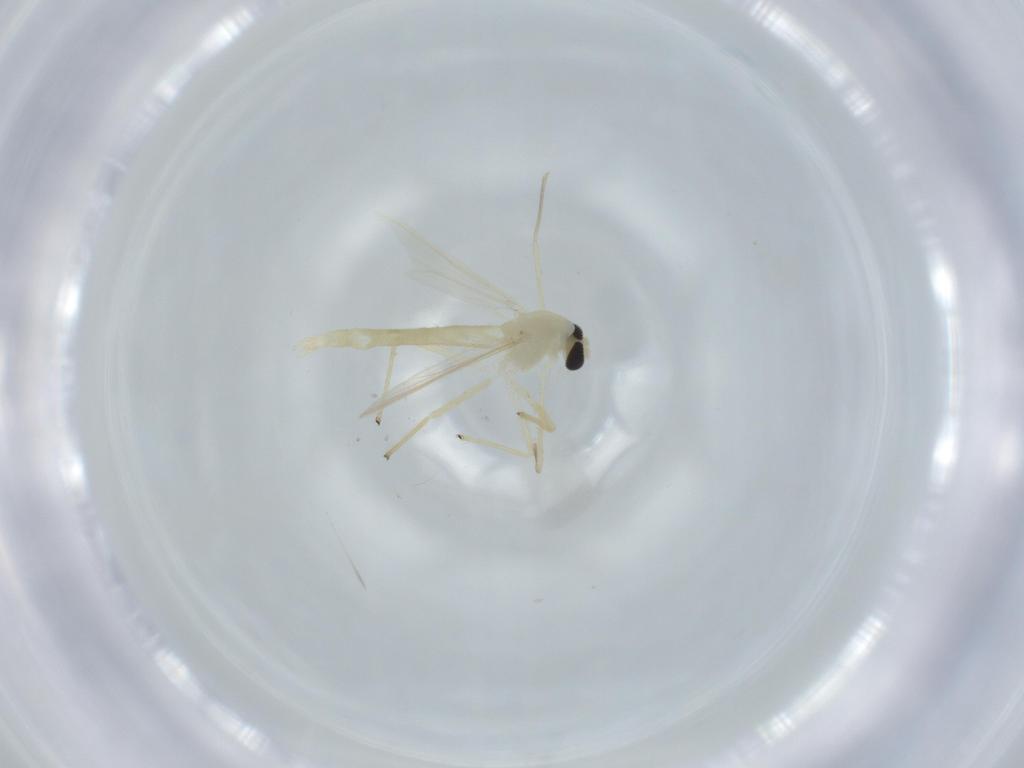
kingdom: Animalia
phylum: Arthropoda
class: Insecta
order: Diptera
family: Chironomidae
